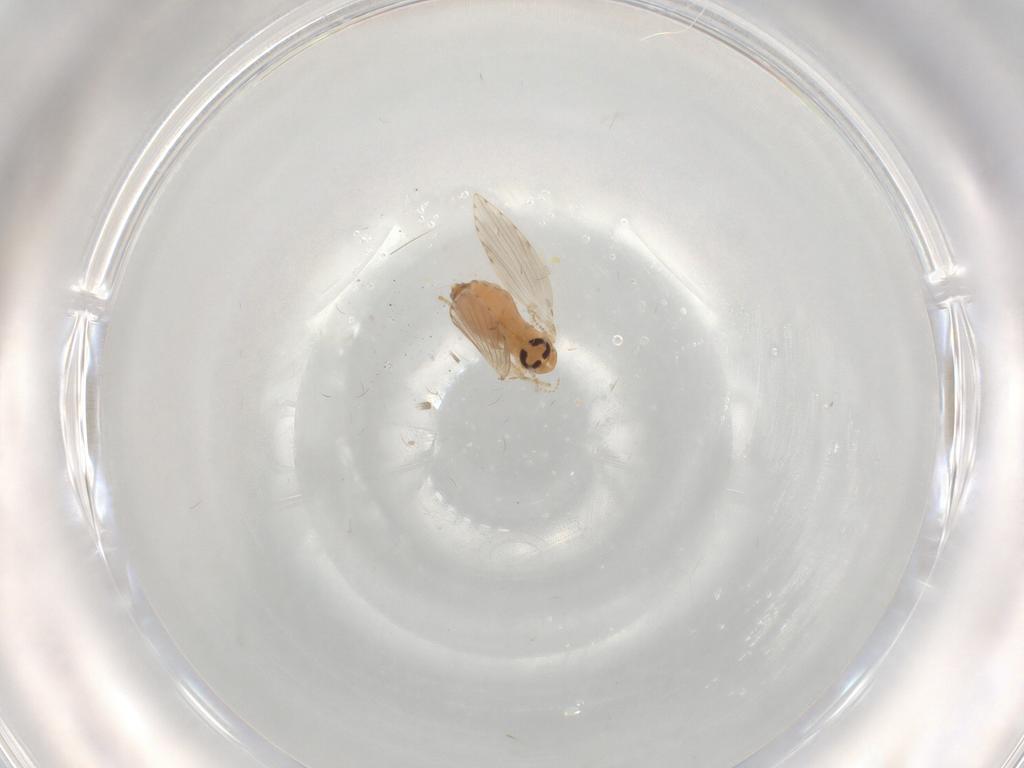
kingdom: Animalia
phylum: Arthropoda
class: Insecta
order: Diptera
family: Psychodidae
